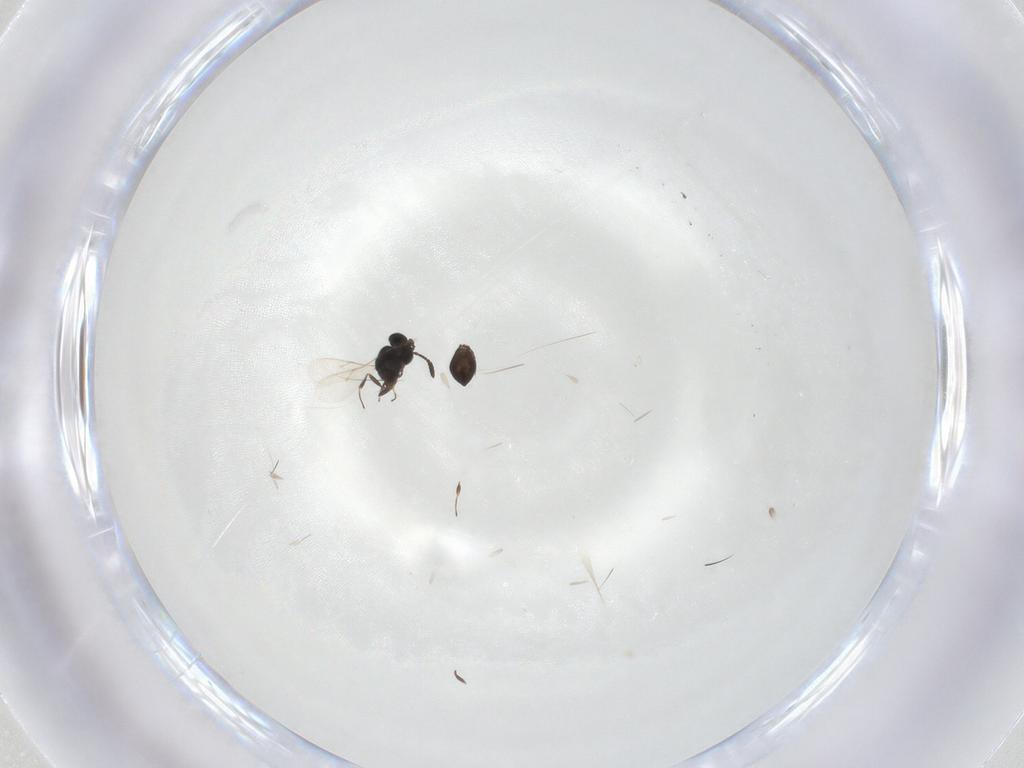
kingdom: Animalia
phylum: Arthropoda
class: Insecta
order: Hymenoptera
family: Scelionidae
